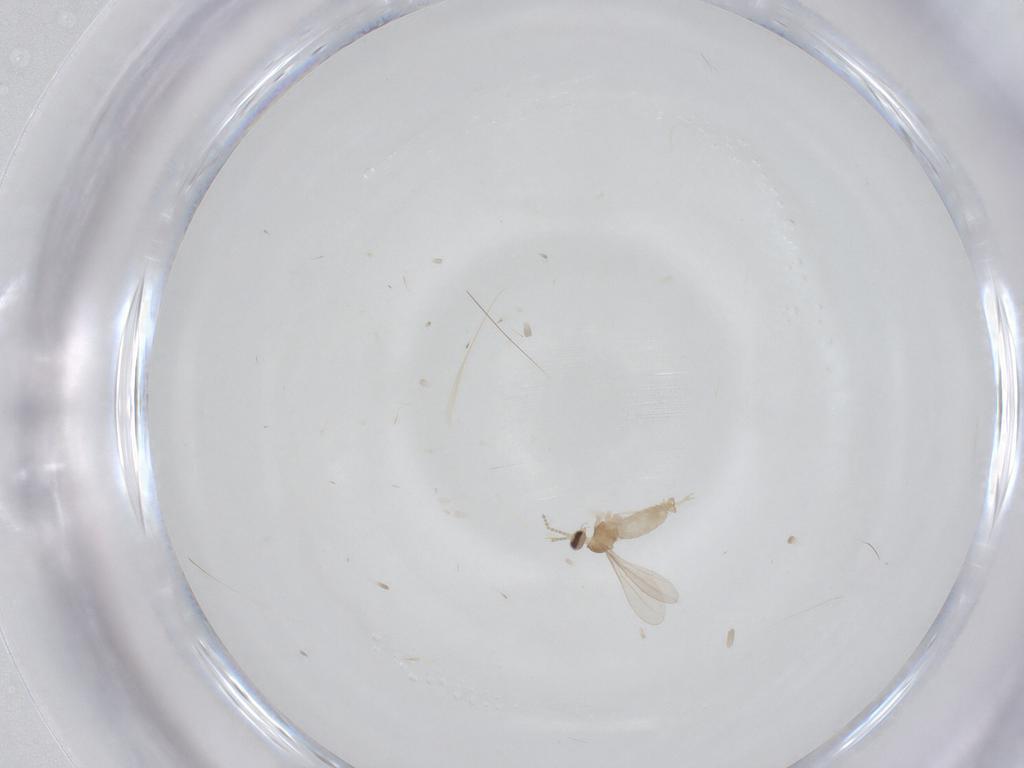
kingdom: Animalia
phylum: Arthropoda
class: Insecta
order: Diptera
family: Cecidomyiidae
